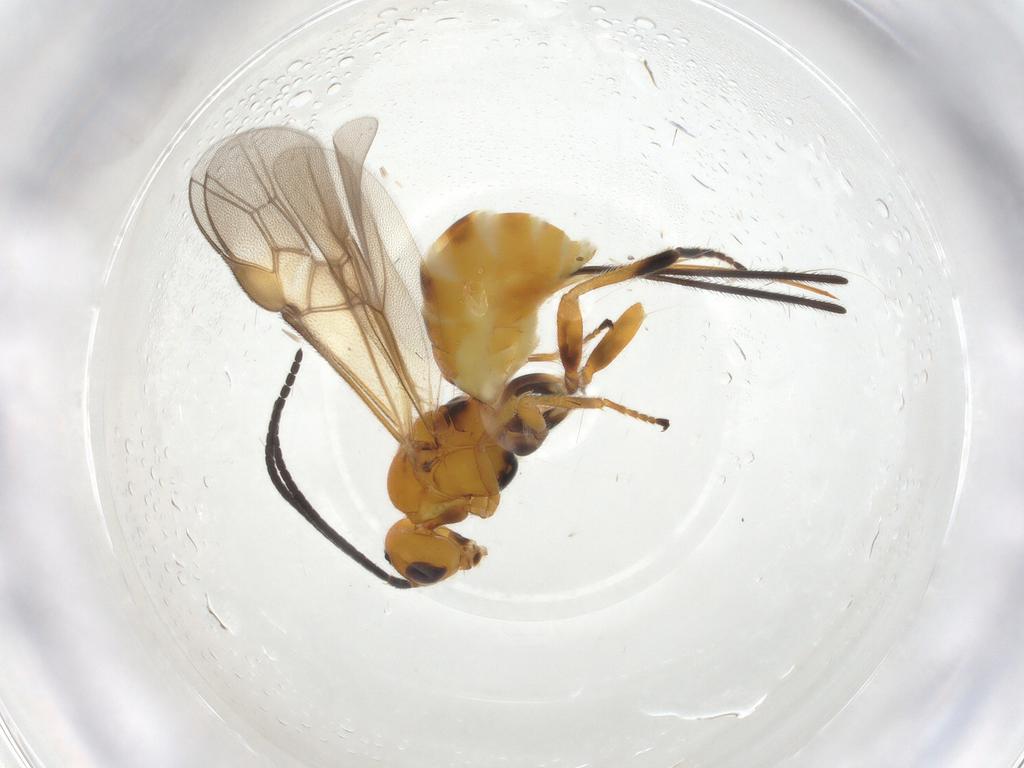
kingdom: Animalia
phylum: Arthropoda
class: Insecta
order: Hymenoptera
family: Braconidae
